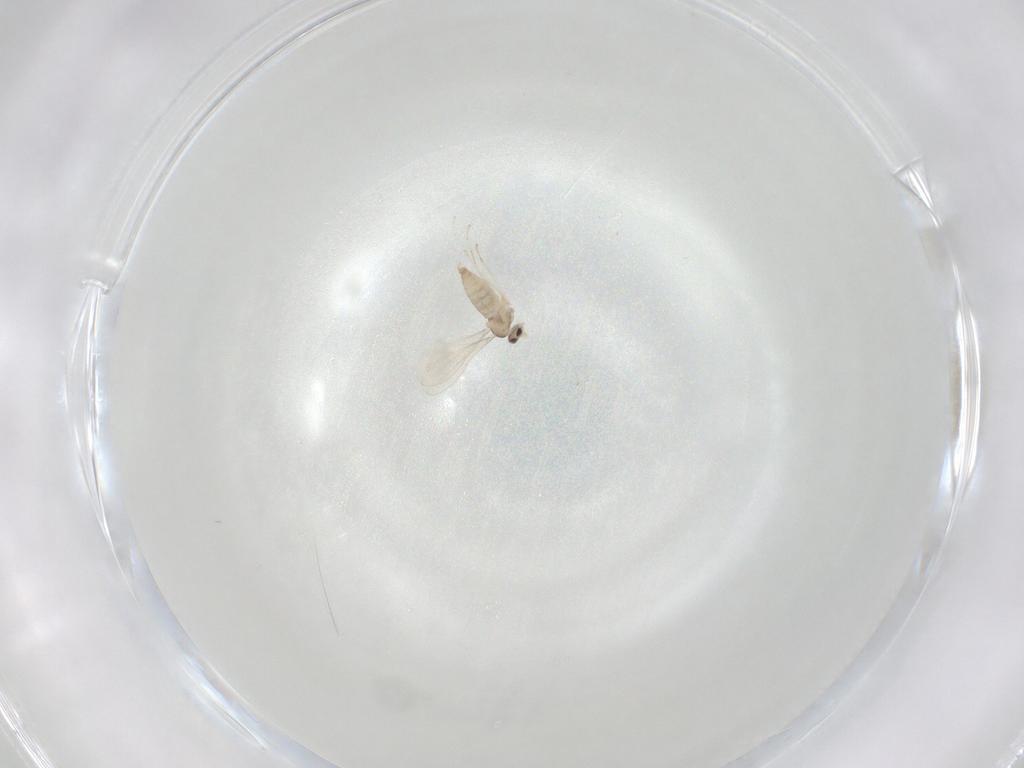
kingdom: Animalia
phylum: Arthropoda
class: Insecta
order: Diptera
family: Cecidomyiidae
